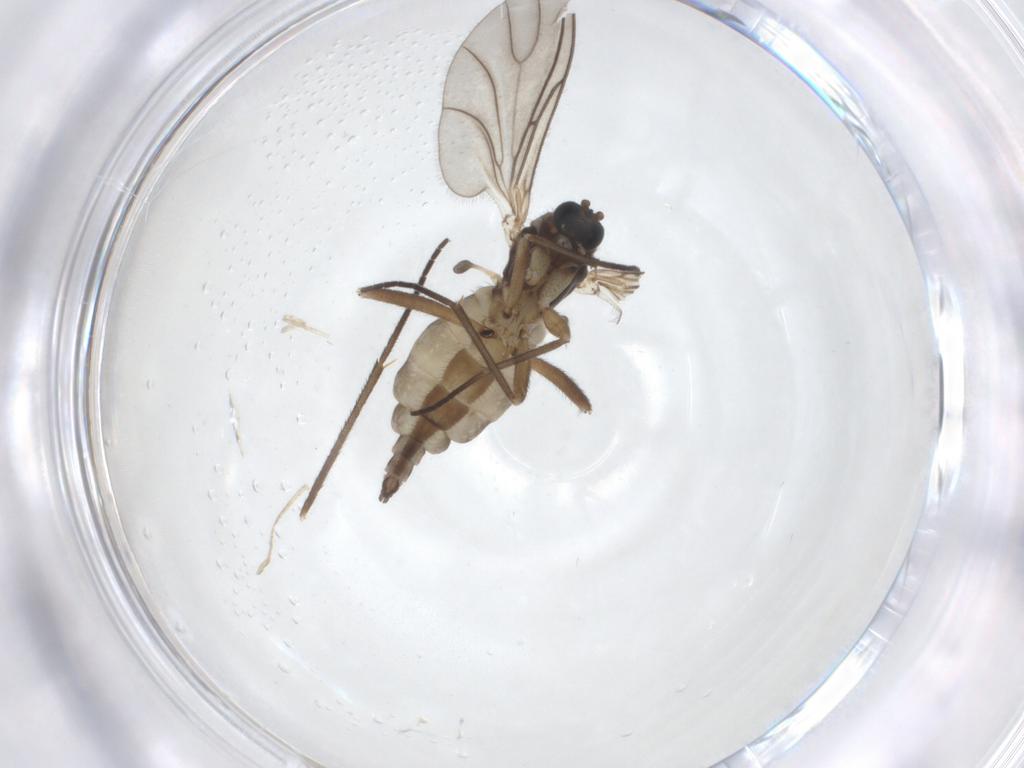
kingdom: Animalia
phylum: Arthropoda
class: Insecta
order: Diptera
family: Sciaridae
